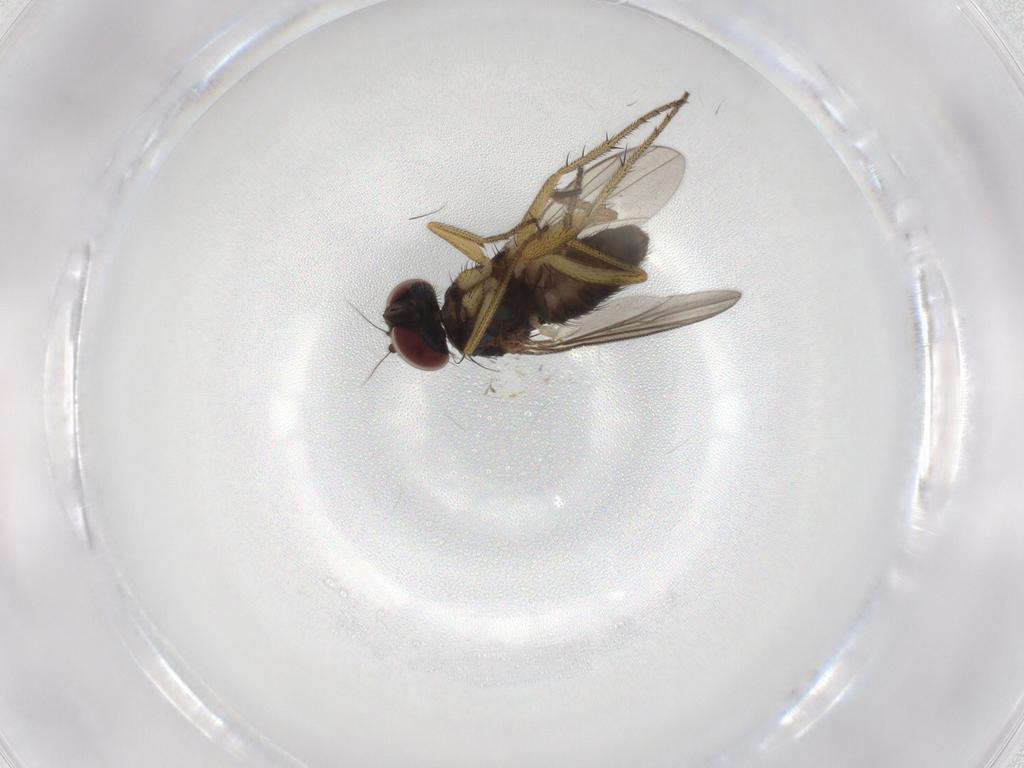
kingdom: Animalia
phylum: Arthropoda
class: Insecta
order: Diptera
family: Dolichopodidae
